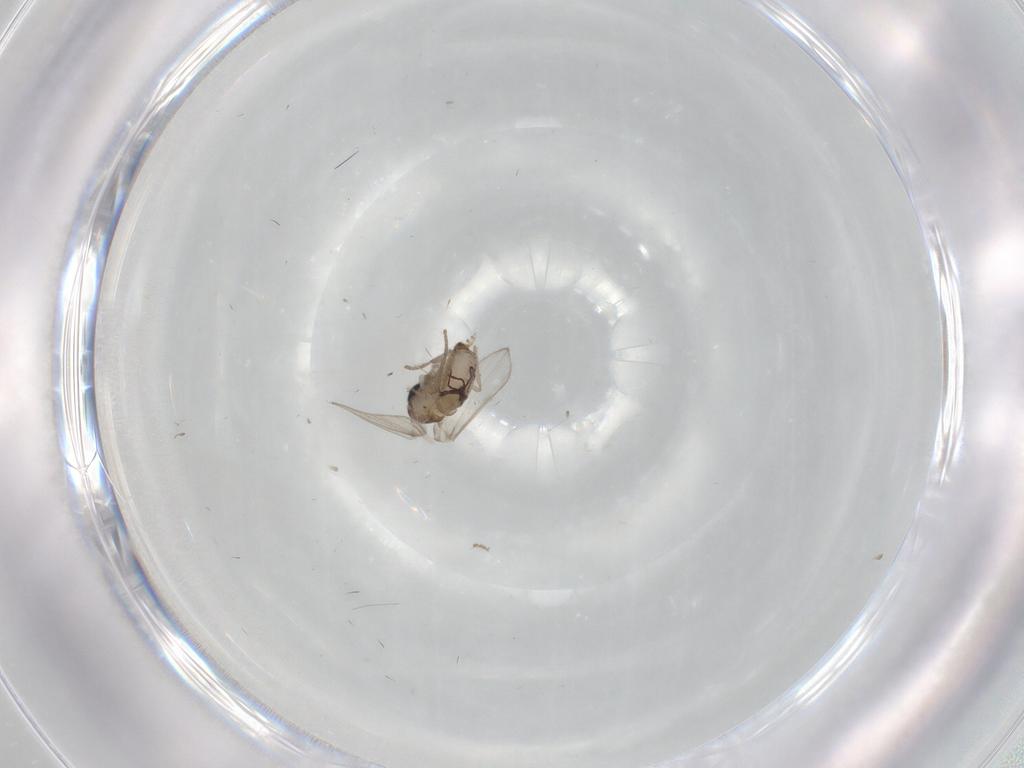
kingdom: Animalia
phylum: Arthropoda
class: Insecta
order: Diptera
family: Psychodidae
